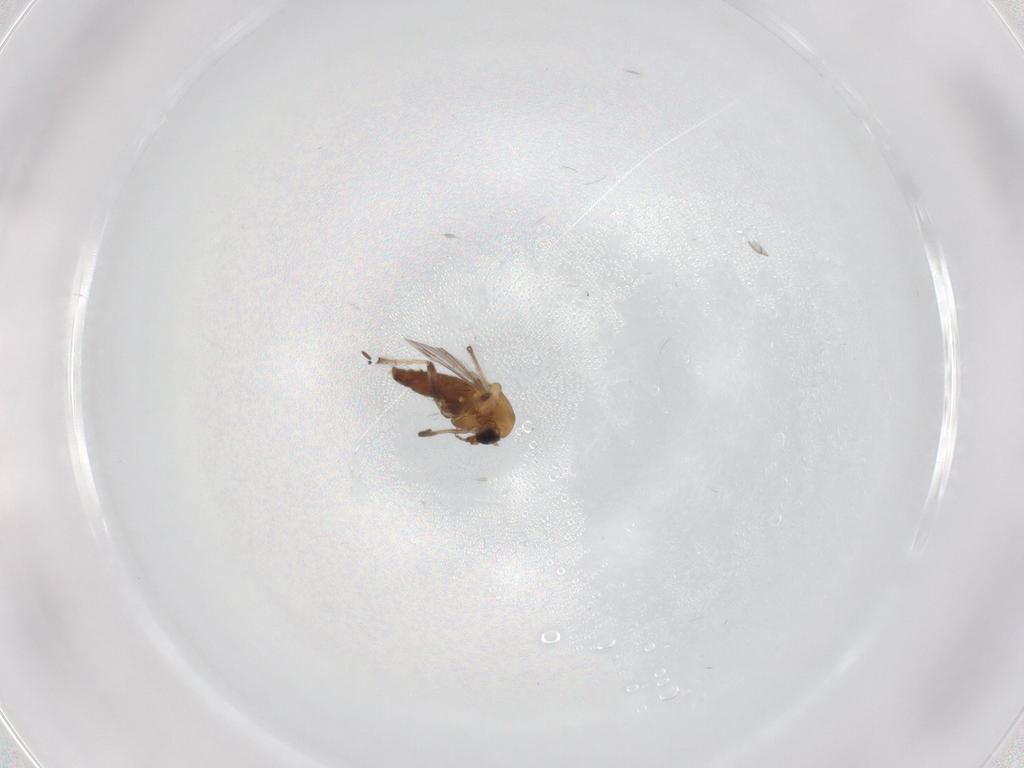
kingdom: Animalia
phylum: Arthropoda
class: Insecta
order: Diptera
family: Chironomidae
